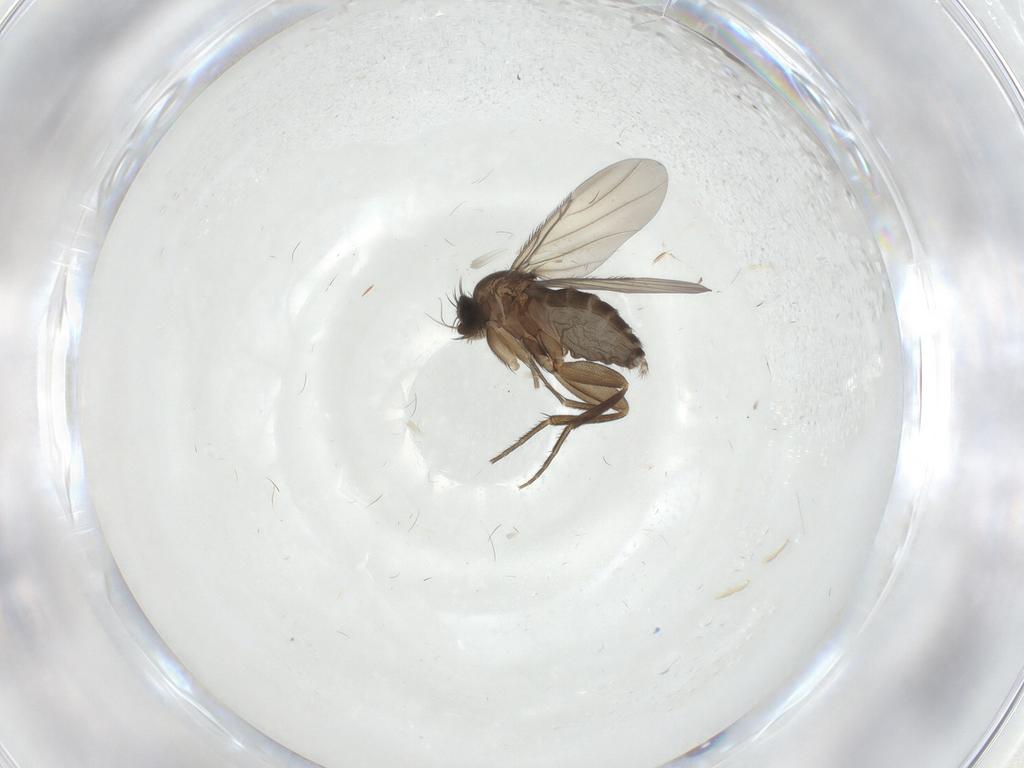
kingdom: Animalia
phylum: Arthropoda
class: Insecta
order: Diptera
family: Phoridae
